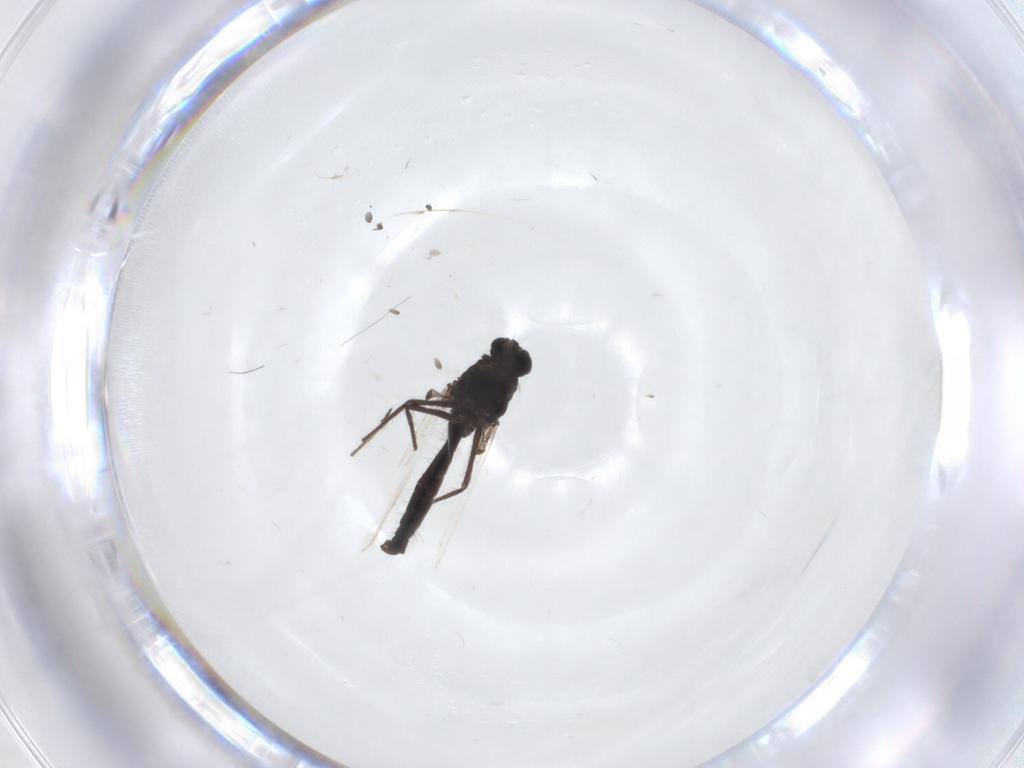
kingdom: Animalia
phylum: Arthropoda
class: Insecta
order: Diptera
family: Chironomidae
